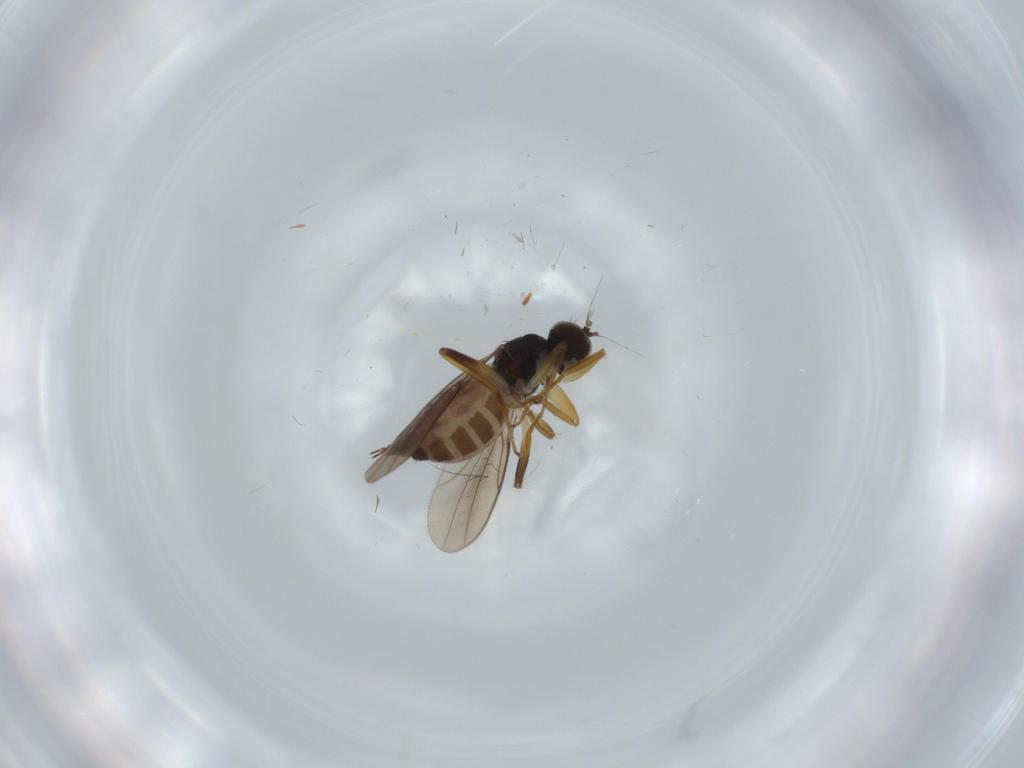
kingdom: Animalia
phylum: Arthropoda
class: Insecta
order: Diptera
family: Hybotidae
